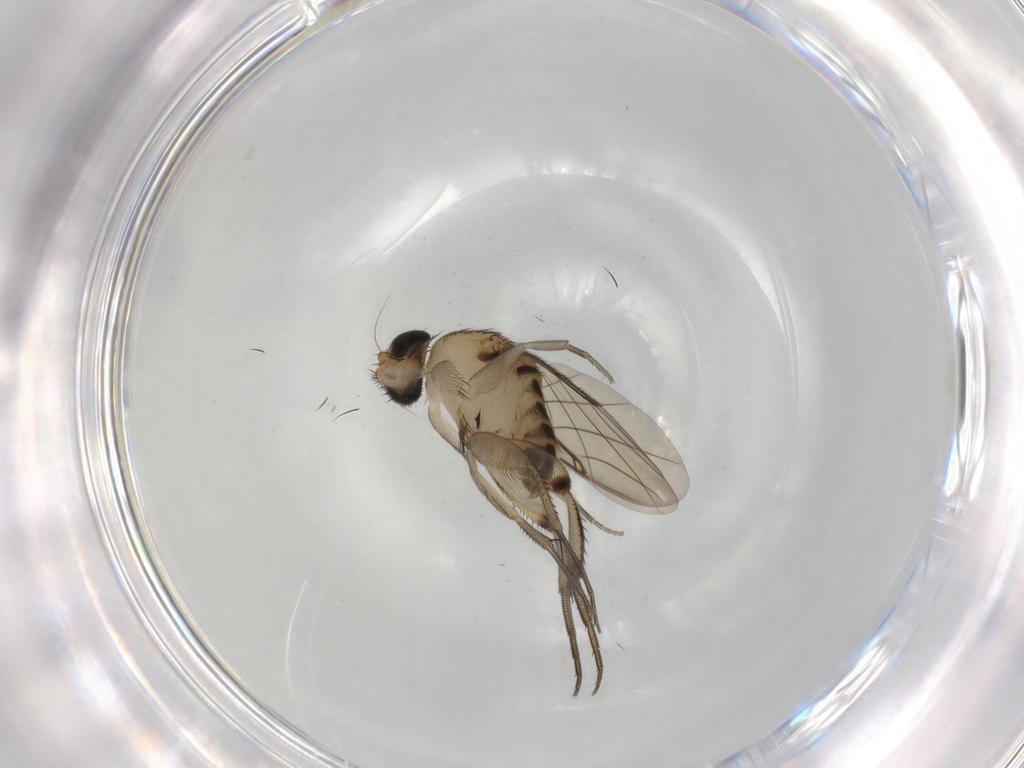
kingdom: Animalia
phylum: Arthropoda
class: Insecta
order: Diptera
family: Phoridae
